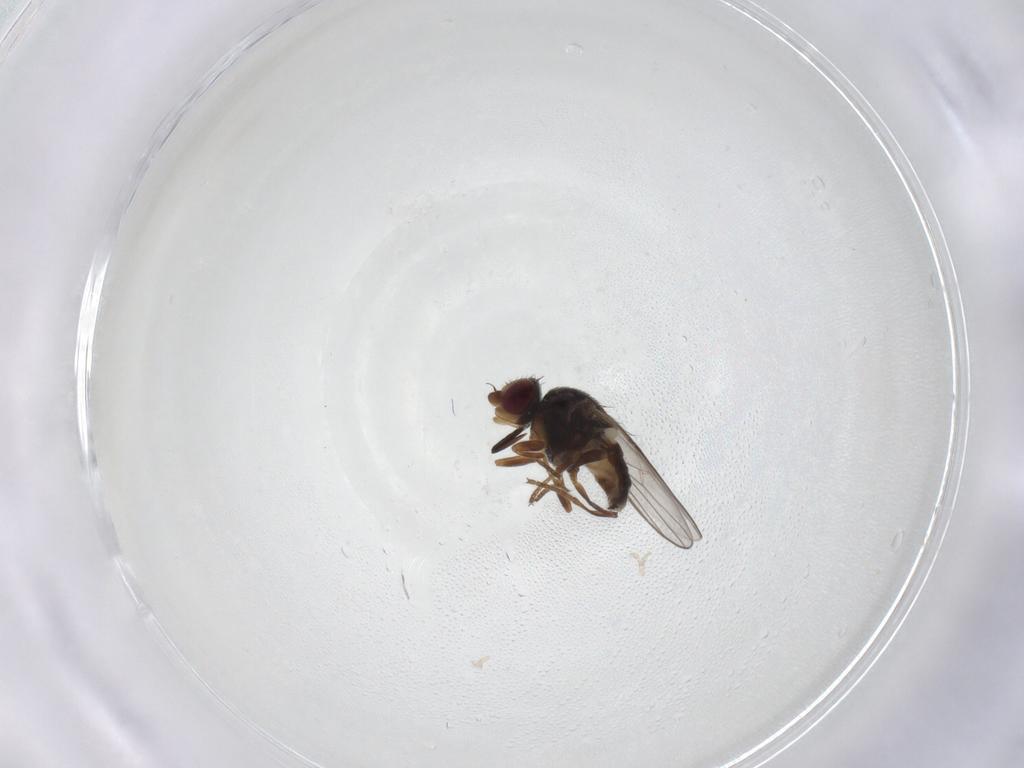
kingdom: Animalia
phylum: Arthropoda
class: Insecta
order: Diptera
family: Chloropidae
